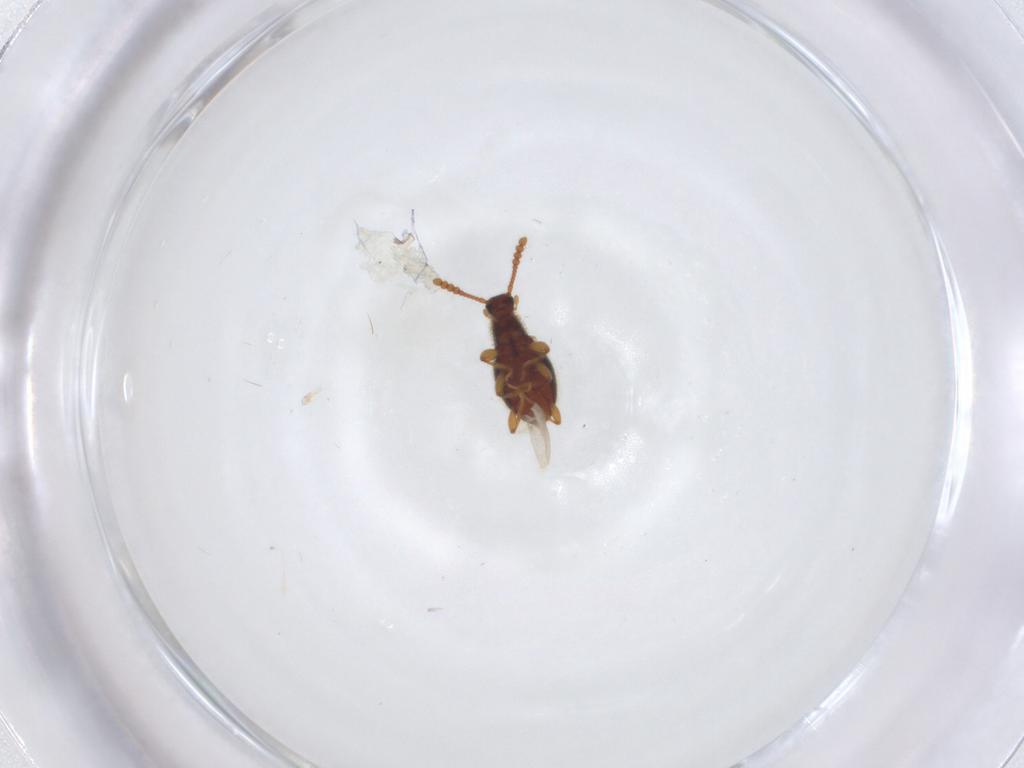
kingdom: Animalia
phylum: Arthropoda
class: Insecta
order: Coleoptera
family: Staphylinidae
